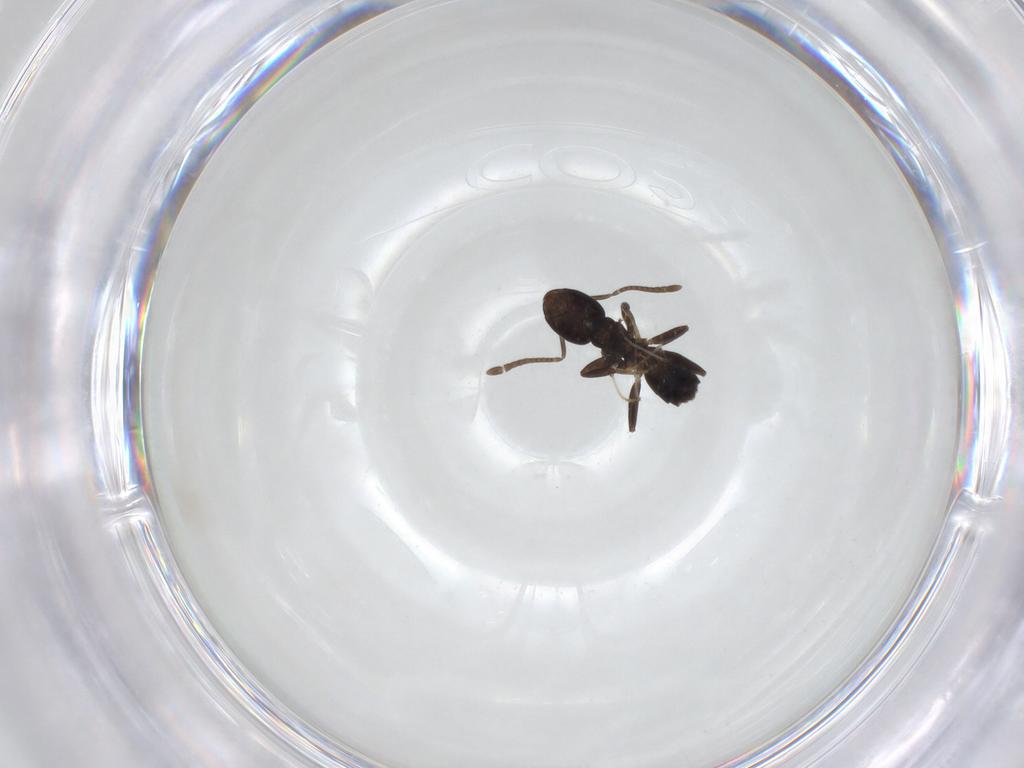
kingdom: Animalia
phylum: Arthropoda
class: Insecta
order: Hymenoptera
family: Formicidae
